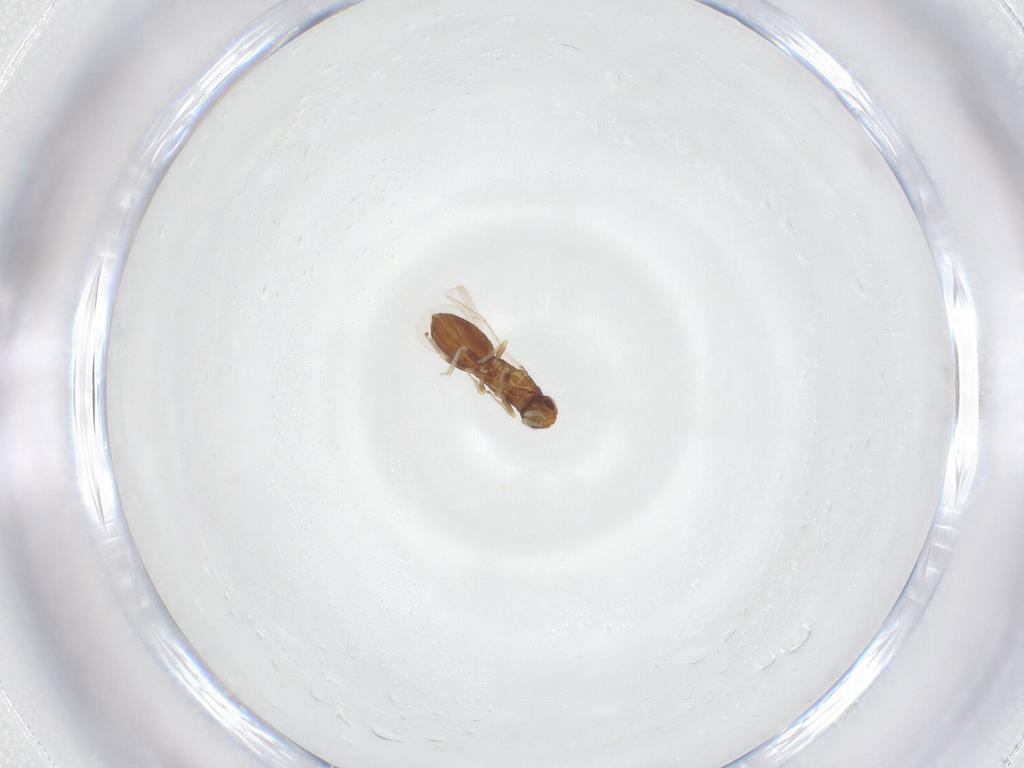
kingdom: Animalia
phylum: Arthropoda
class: Insecta
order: Hymenoptera
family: Eulophidae
